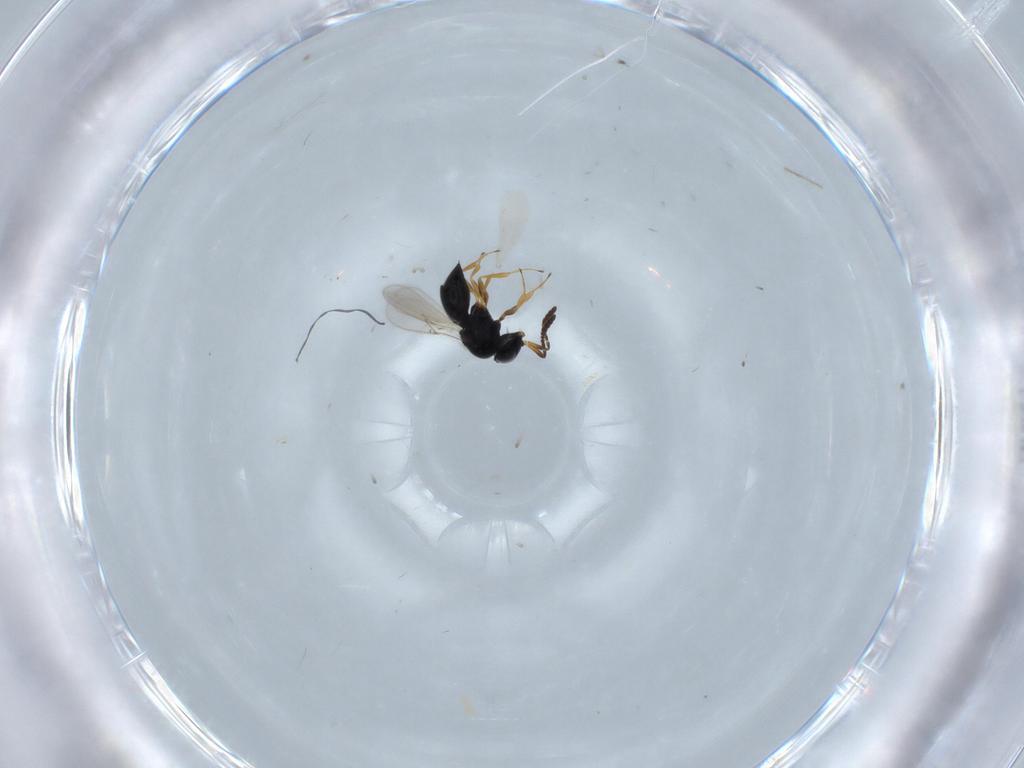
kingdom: Animalia
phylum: Arthropoda
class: Insecta
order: Hymenoptera
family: Scelionidae
